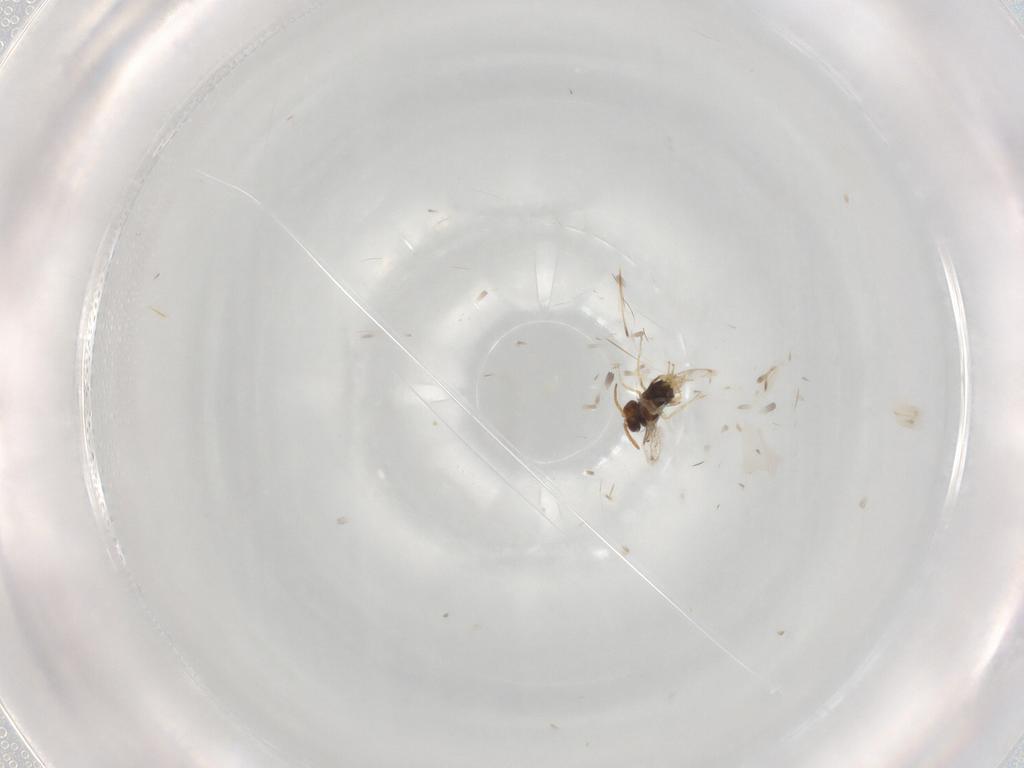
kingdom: Animalia
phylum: Arthropoda
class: Insecta
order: Hymenoptera
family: Aphelinidae
